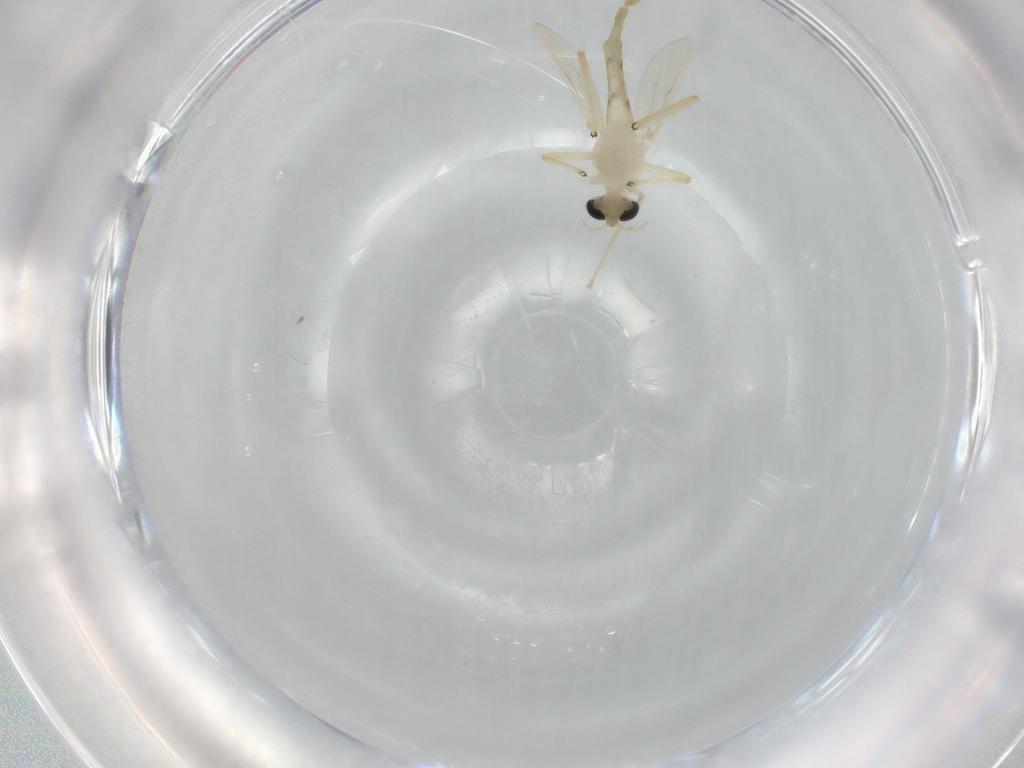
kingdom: Animalia
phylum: Arthropoda
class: Insecta
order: Diptera
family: Chironomidae
